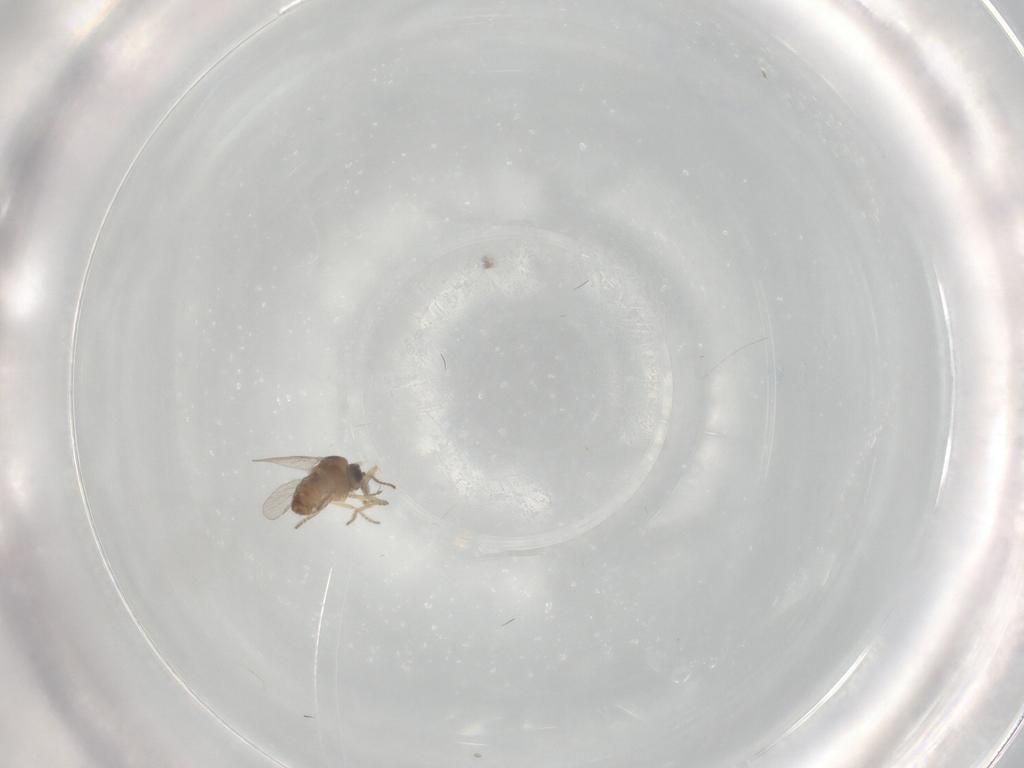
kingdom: Animalia
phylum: Arthropoda
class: Insecta
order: Diptera
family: Ceratopogonidae
